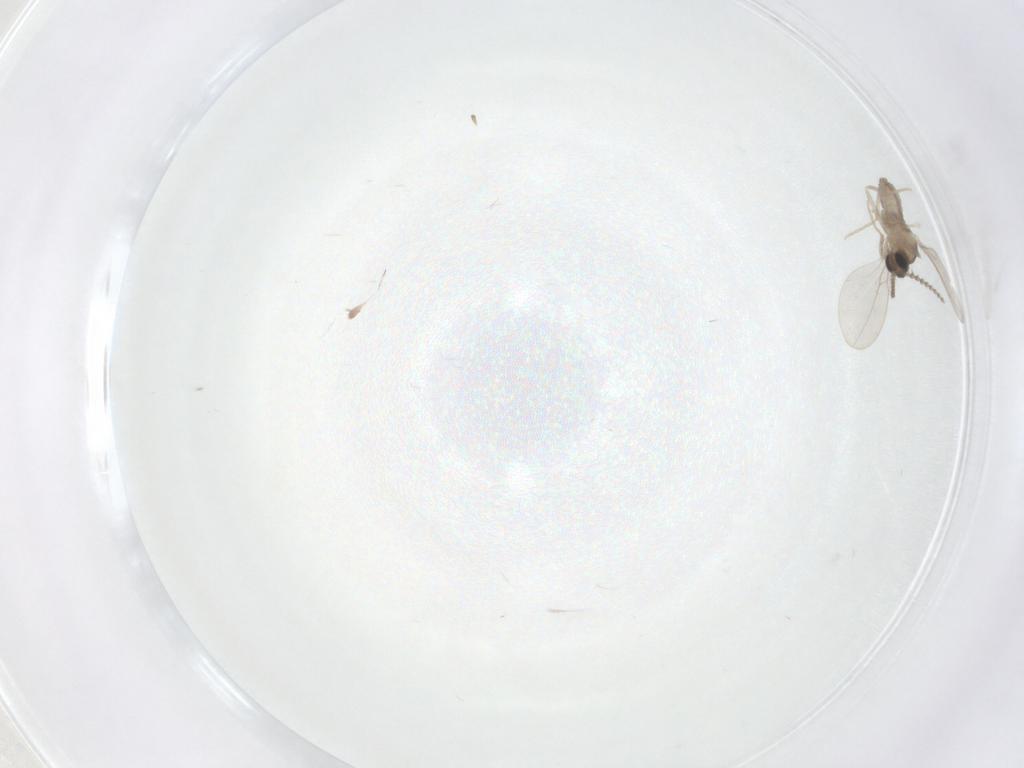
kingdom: Animalia
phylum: Arthropoda
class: Insecta
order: Diptera
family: Cecidomyiidae
